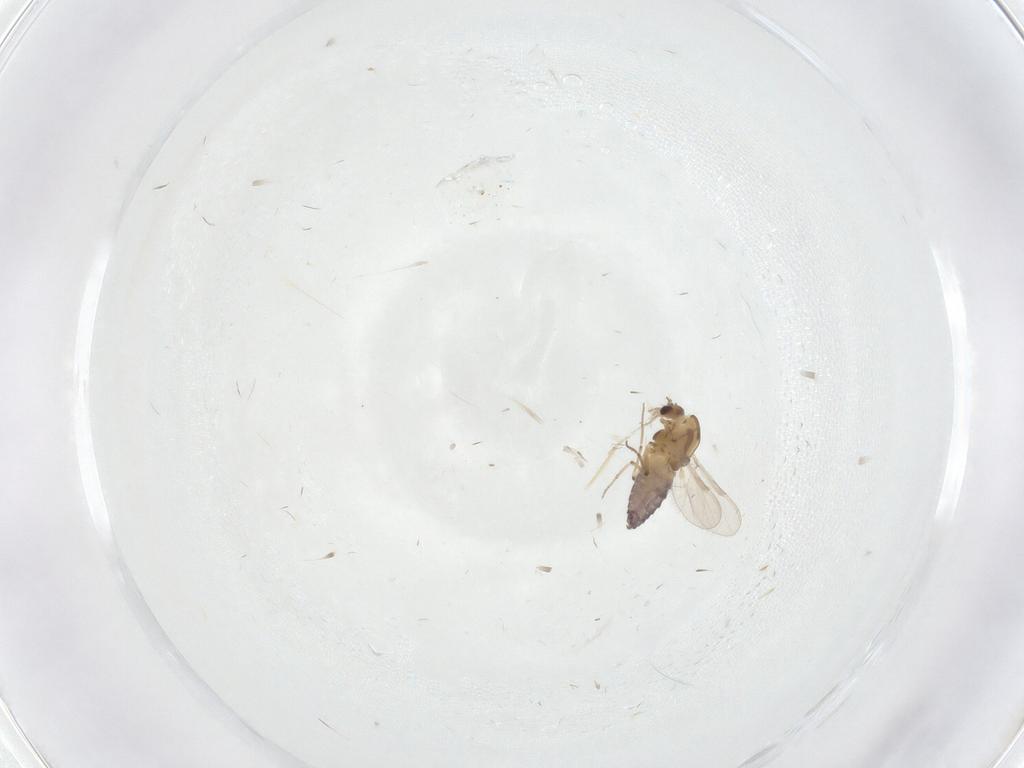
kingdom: Animalia
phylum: Arthropoda
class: Insecta
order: Diptera
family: Chironomidae
